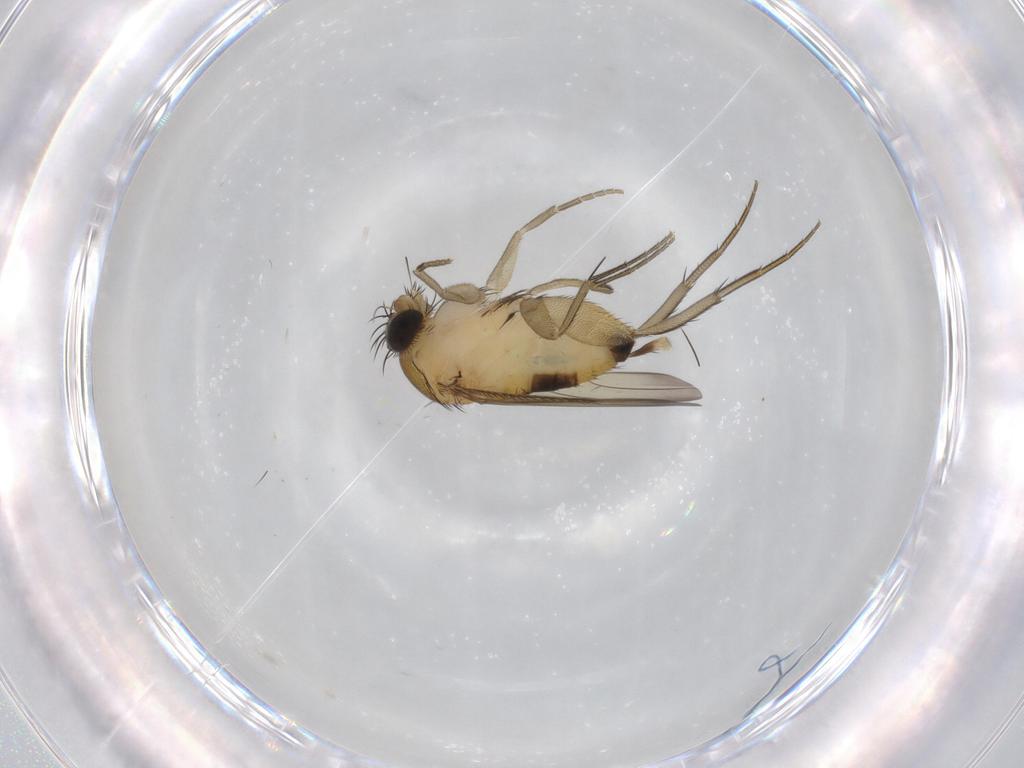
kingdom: Animalia
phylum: Arthropoda
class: Insecta
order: Diptera
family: Phoridae
